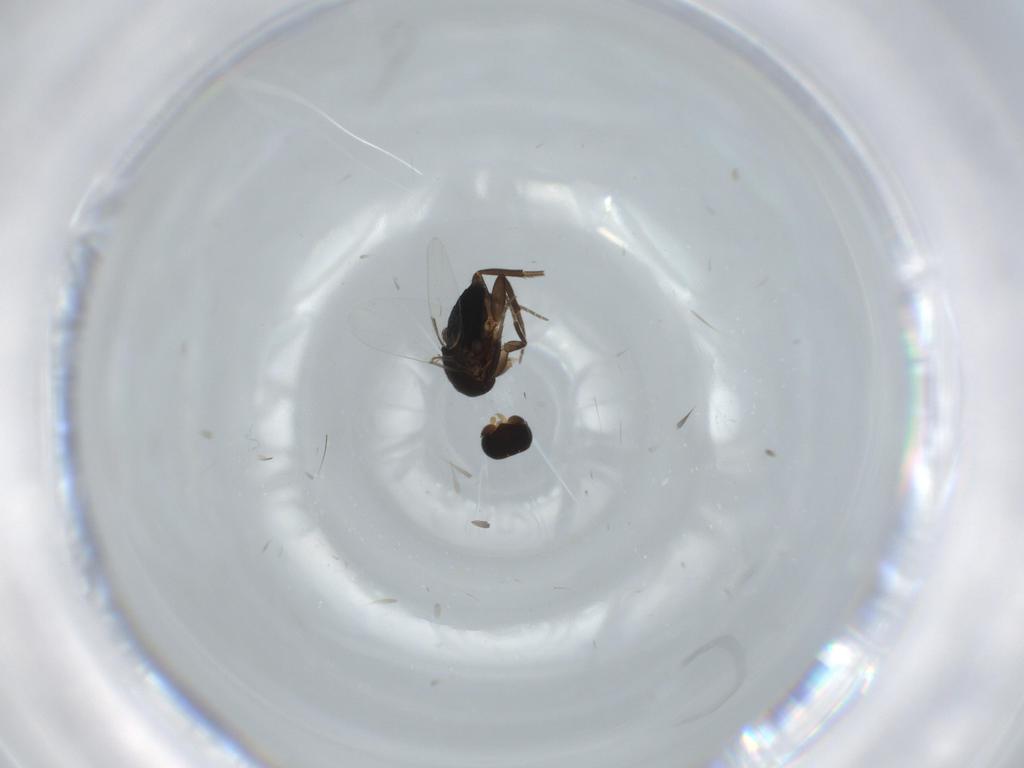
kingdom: Animalia
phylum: Arthropoda
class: Insecta
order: Diptera
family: Phoridae
